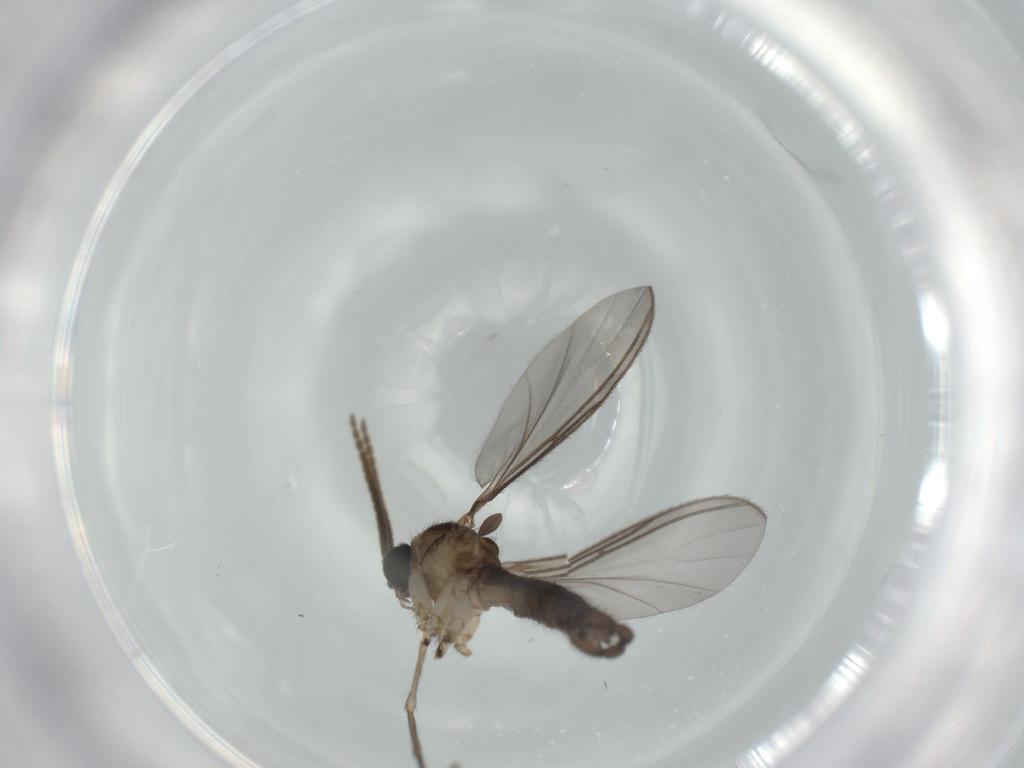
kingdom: Animalia
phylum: Arthropoda
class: Insecta
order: Diptera
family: Sciaridae
